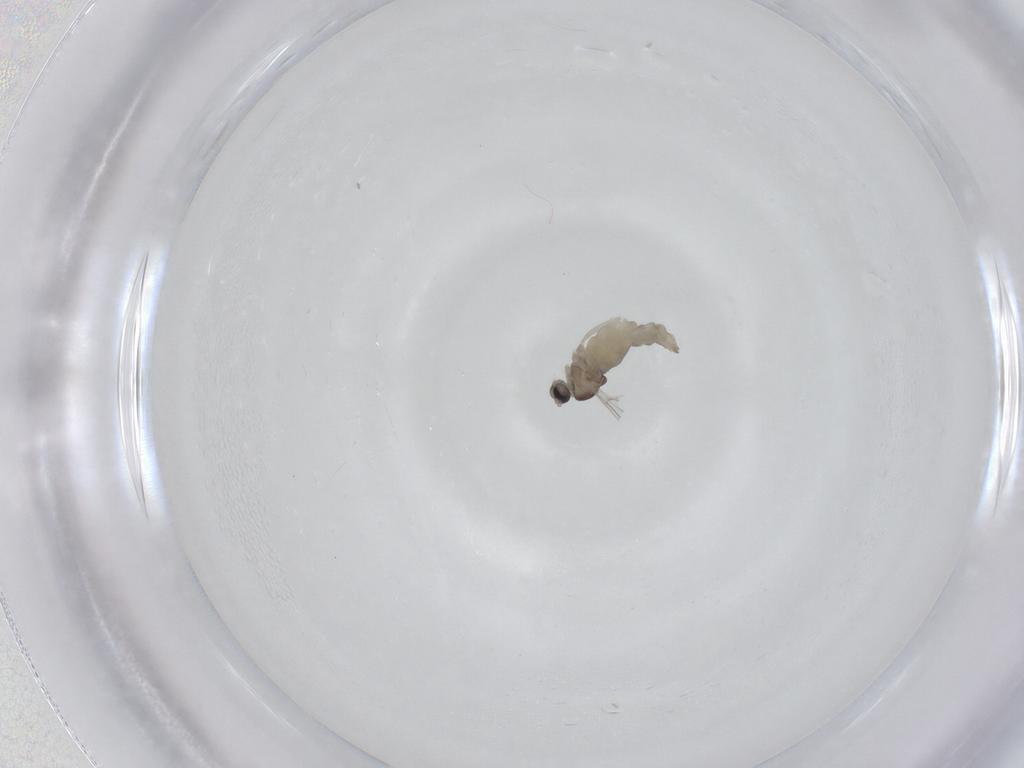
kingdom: Animalia
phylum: Arthropoda
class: Insecta
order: Diptera
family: Cecidomyiidae
